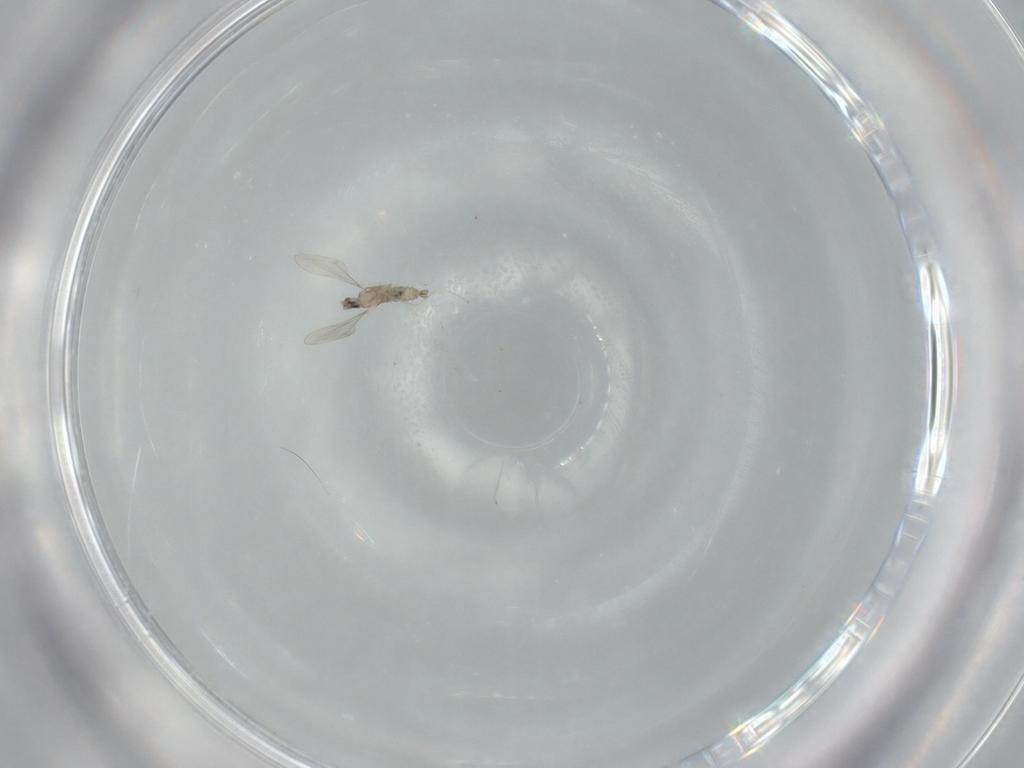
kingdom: Animalia
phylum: Arthropoda
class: Insecta
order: Diptera
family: Cecidomyiidae
